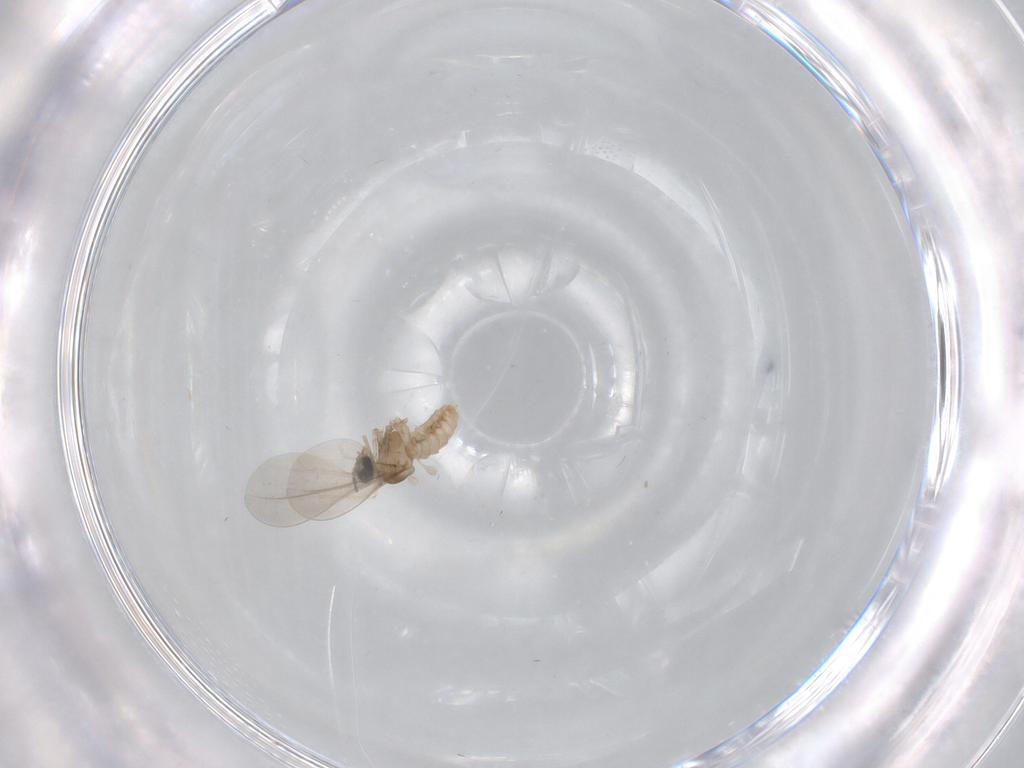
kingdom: Animalia
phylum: Arthropoda
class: Insecta
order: Diptera
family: Cecidomyiidae
